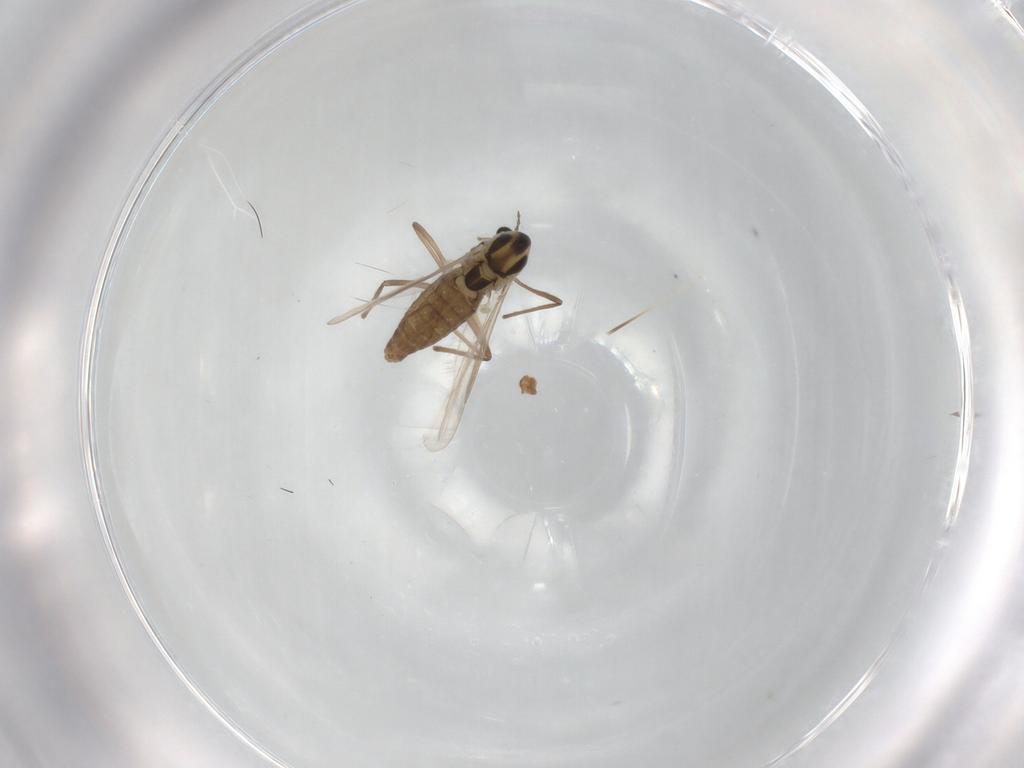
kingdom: Animalia
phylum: Arthropoda
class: Insecta
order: Diptera
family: Chironomidae
